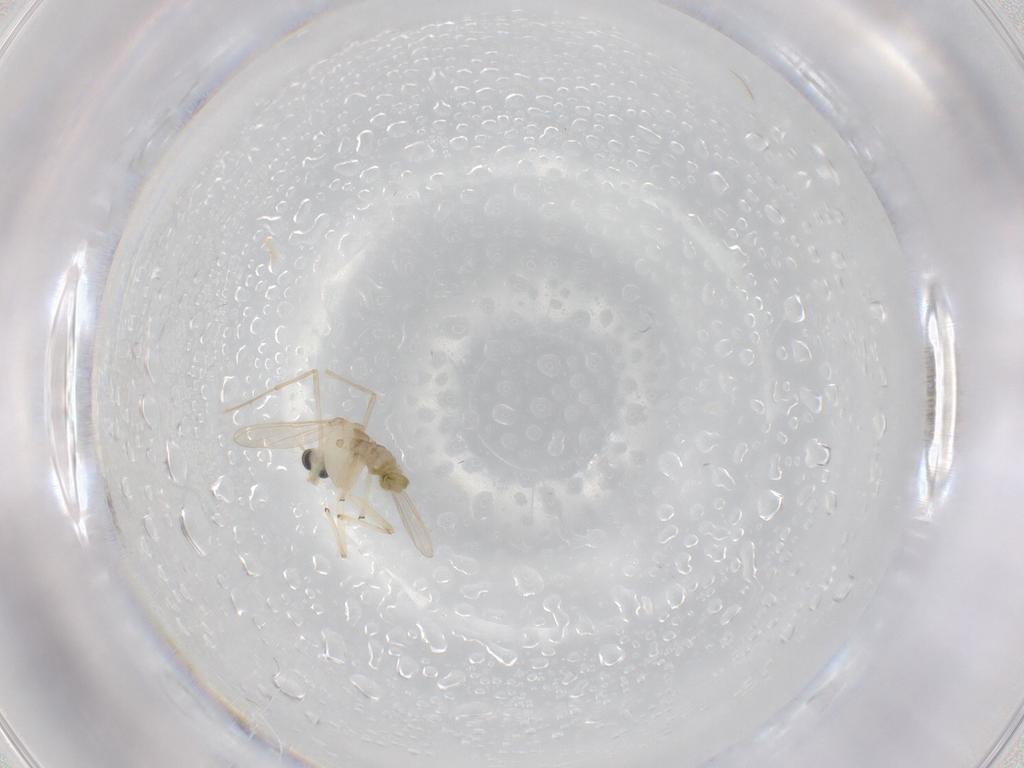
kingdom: Animalia
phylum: Arthropoda
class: Insecta
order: Diptera
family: Chironomidae
